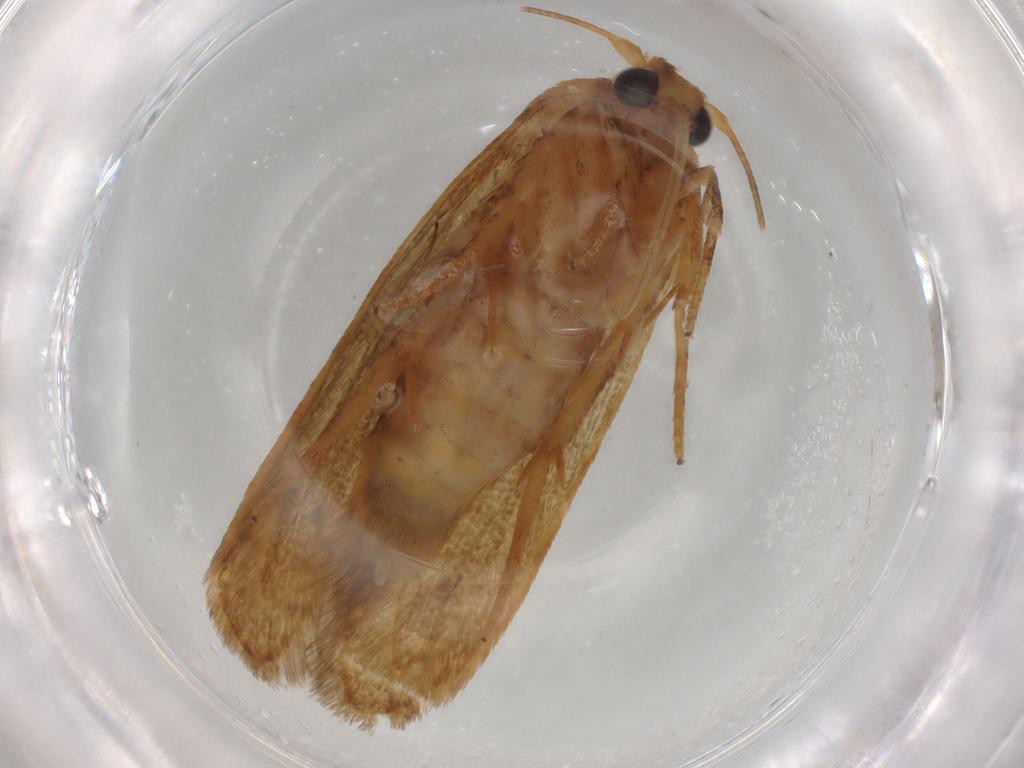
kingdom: Animalia
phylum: Arthropoda
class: Insecta
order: Lepidoptera
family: Blastobasidae
